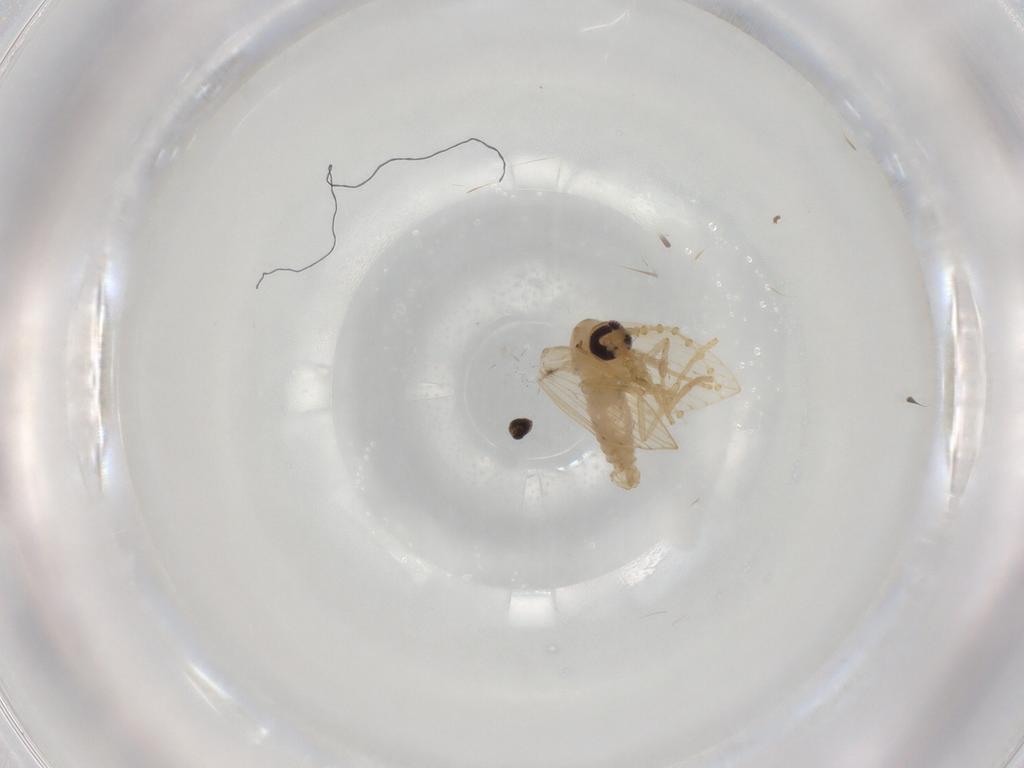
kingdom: Animalia
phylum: Arthropoda
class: Insecta
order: Diptera
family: Psychodidae
